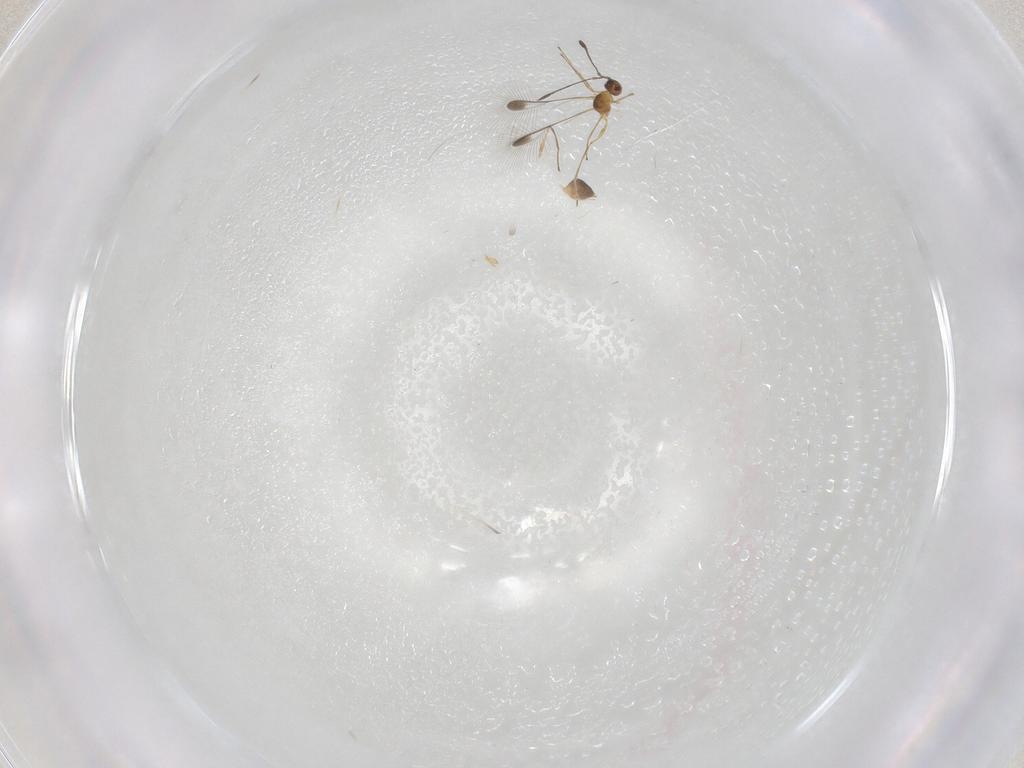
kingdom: Animalia
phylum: Arthropoda
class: Insecta
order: Hymenoptera
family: Mymaridae
